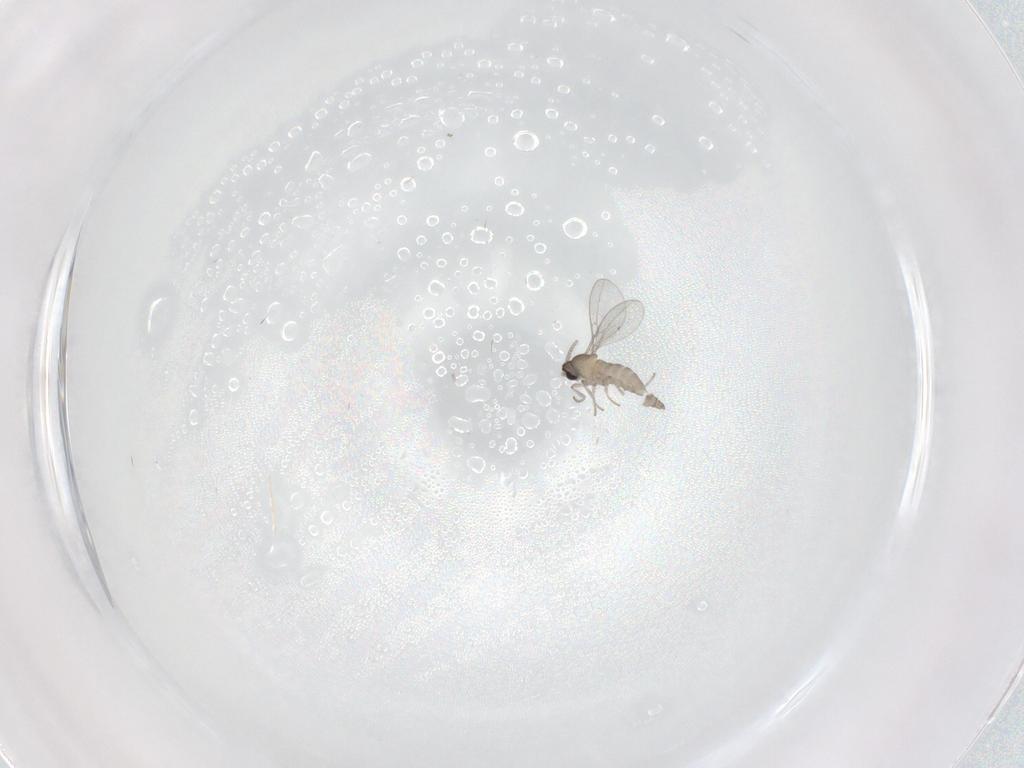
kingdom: Animalia
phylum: Arthropoda
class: Insecta
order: Diptera
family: Cecidomyiidae
